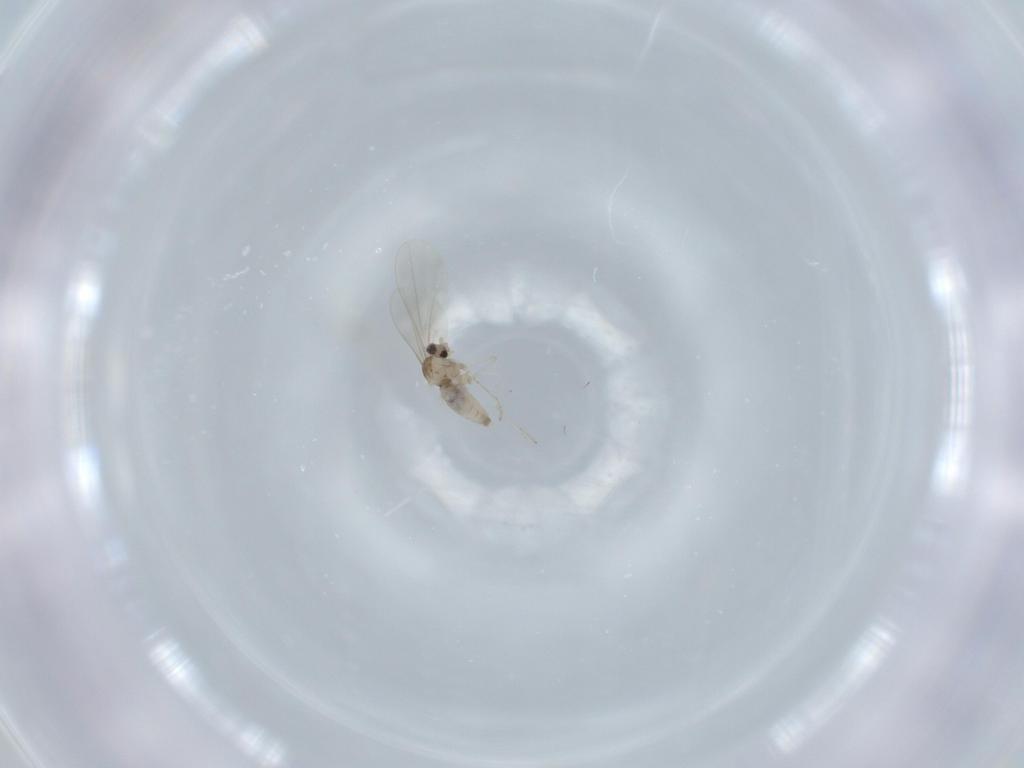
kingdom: Animalia
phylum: Arthropoda
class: Insecta
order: Diptera
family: Cecidomyiidae
